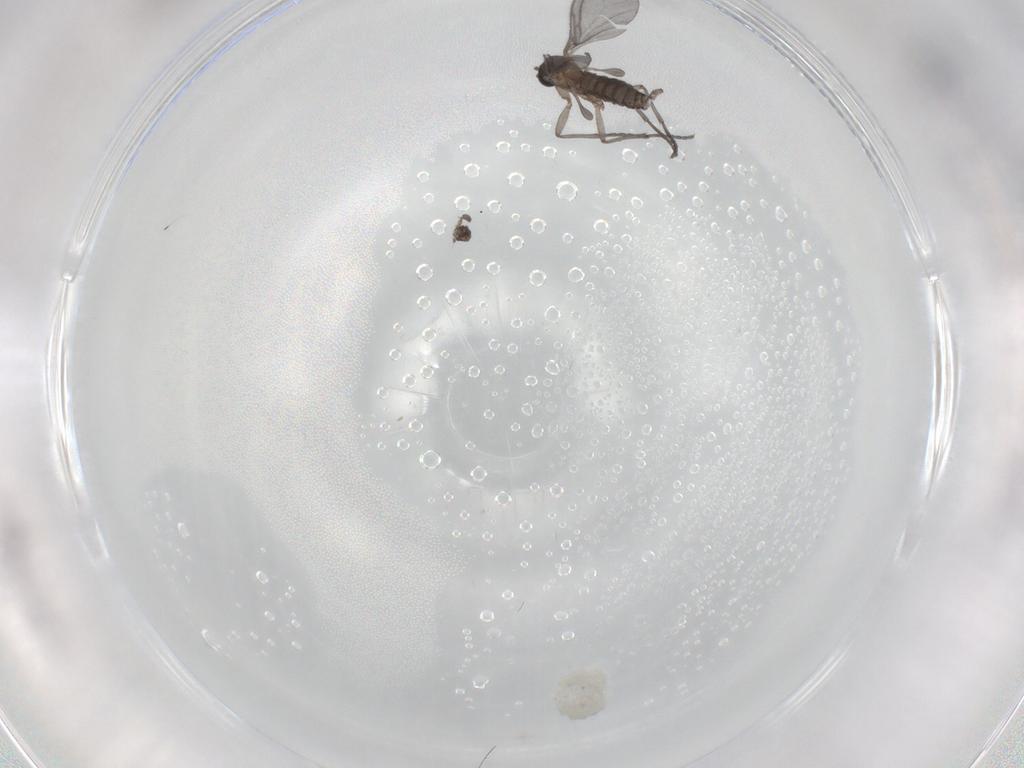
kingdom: Animalia
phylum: Arthropoda
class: Insecta
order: Diptera
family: Sciaridae
